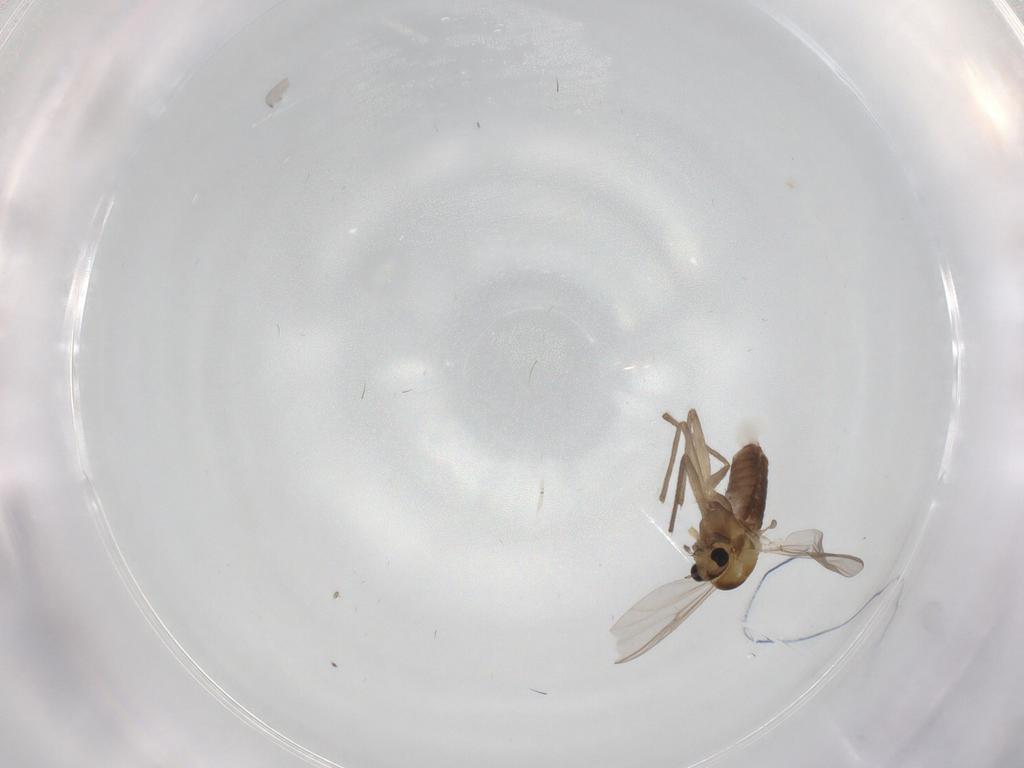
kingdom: Animalia
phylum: Arthropoda
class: Insecta
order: Diptera
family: Chironomidae
